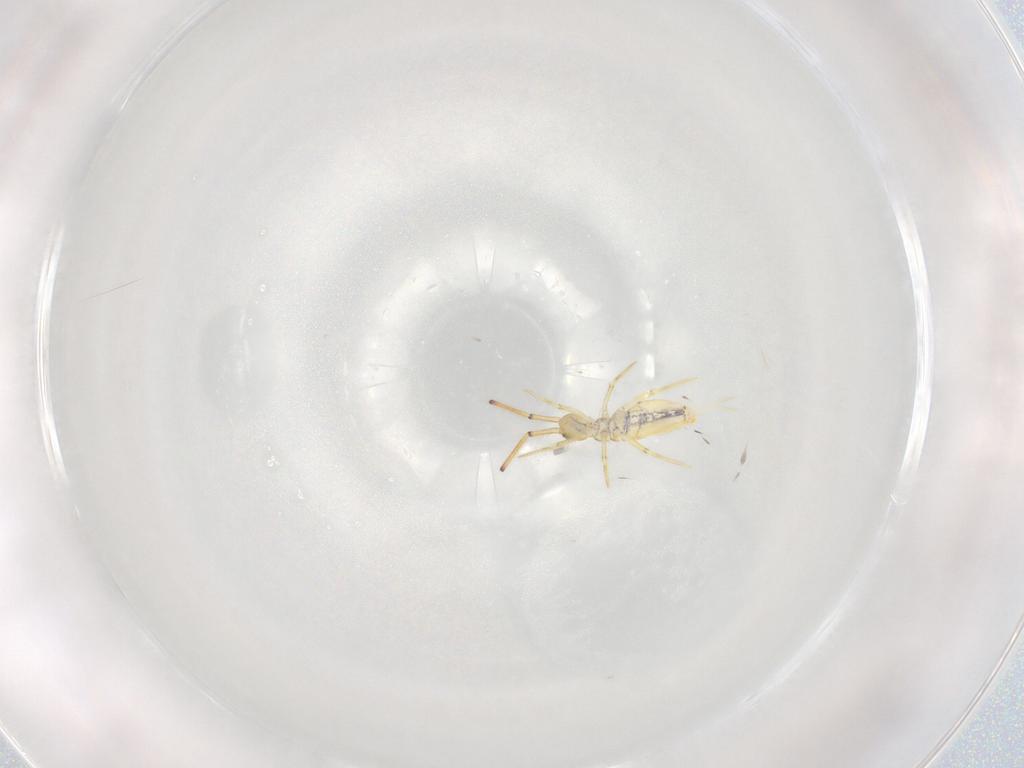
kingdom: Animalia
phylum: Arthropoda
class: Collembola
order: Entomobryomorpha
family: Entomobryidae
